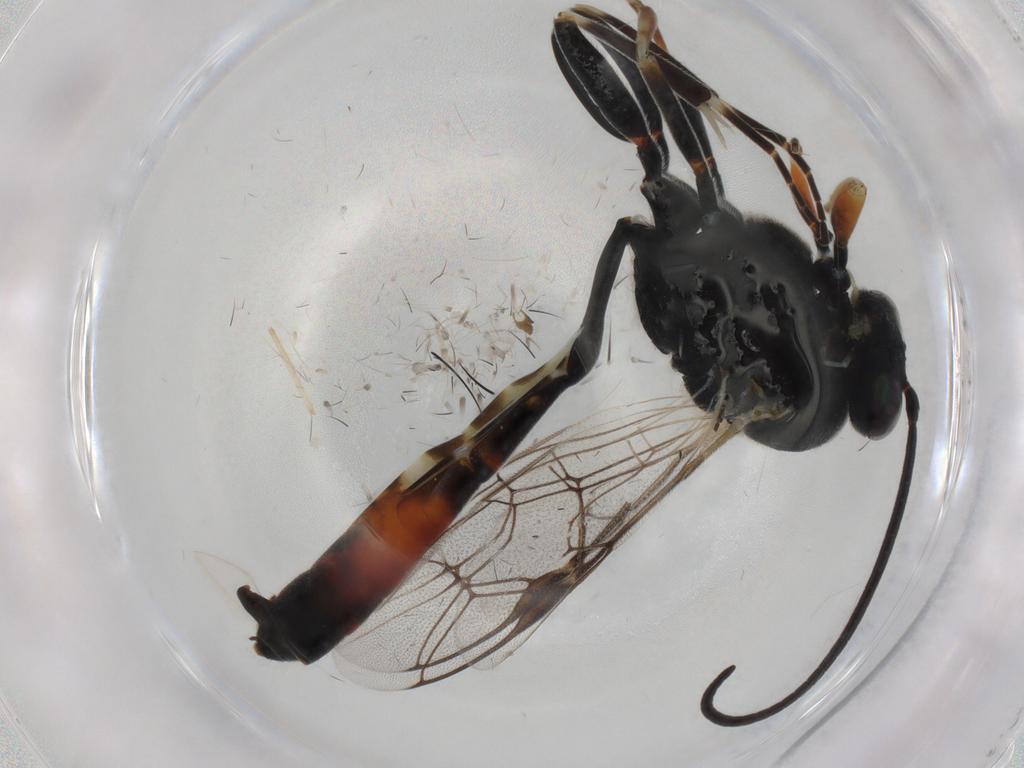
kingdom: Animalia
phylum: Arthropoda
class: Insecta
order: Hymenoptera
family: Ichneumonidae
